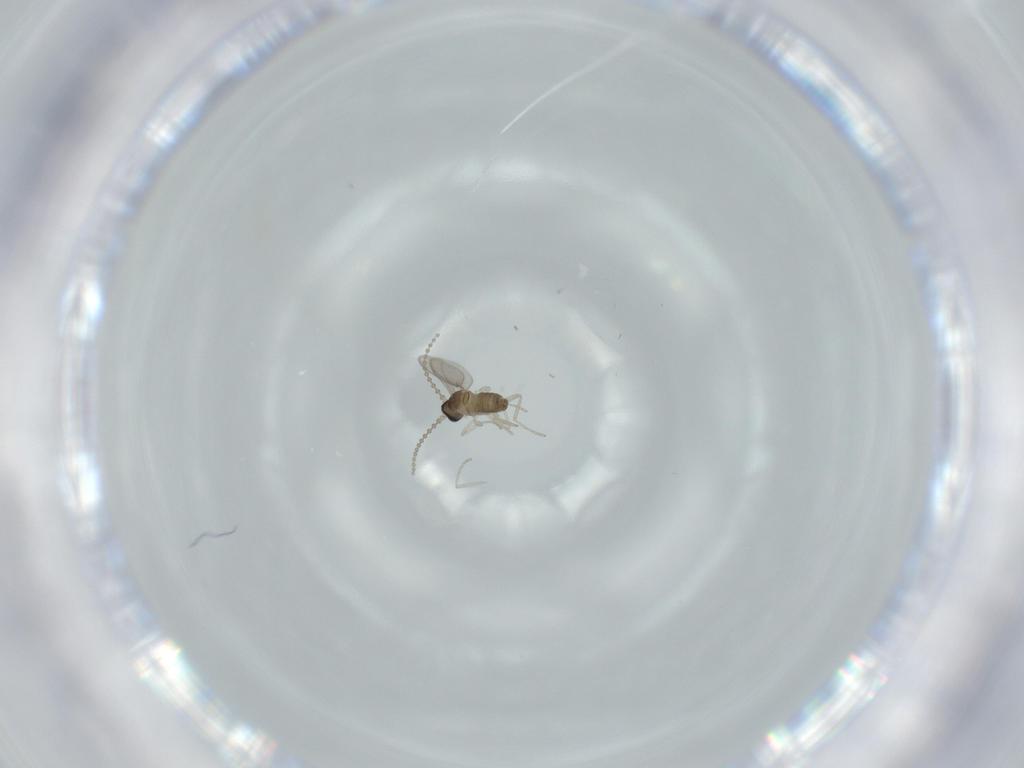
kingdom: Animalia
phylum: Arthropoda
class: Insecta
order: Diptera
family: Cecidomyiidae
